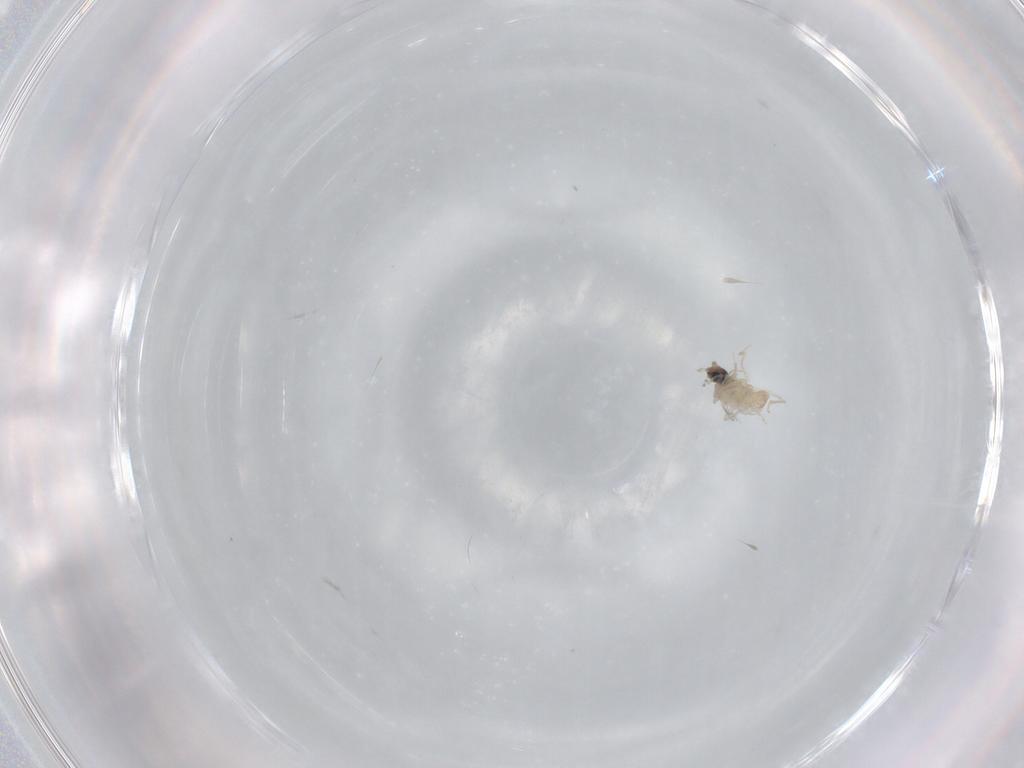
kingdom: Animalia
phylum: Arthropoda
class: Insecta
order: Diptera
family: Cecidomyiidae
